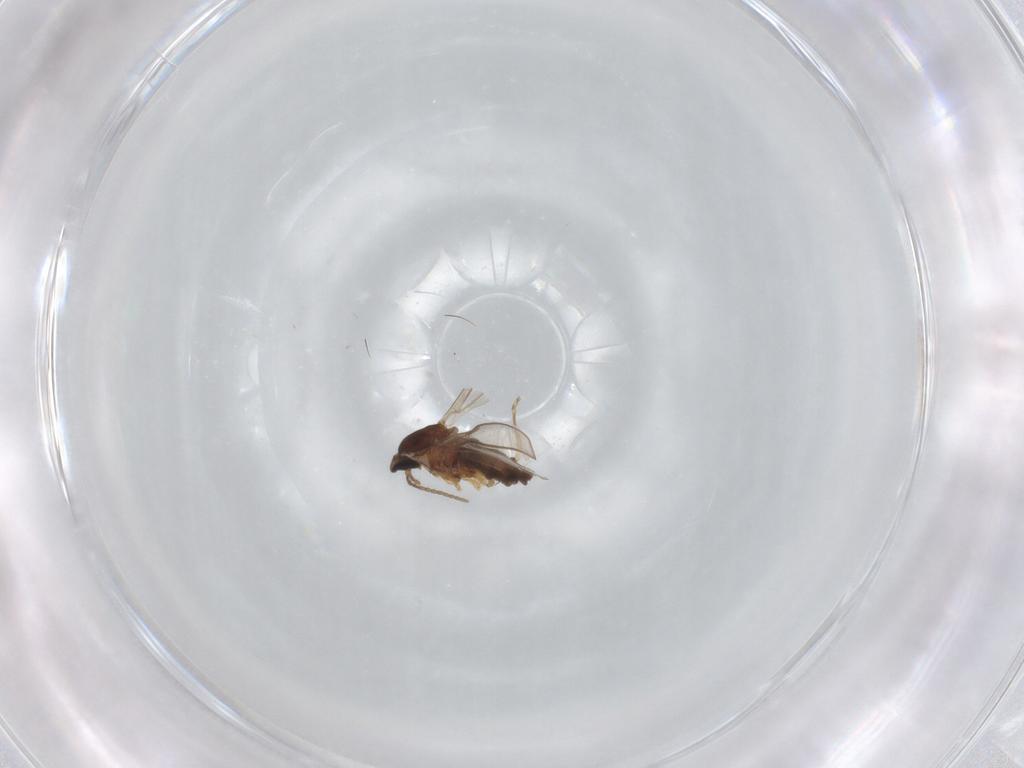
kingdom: Animalia
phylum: Arthropoda
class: Insecta
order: Diptera
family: Cecidomyiidae
